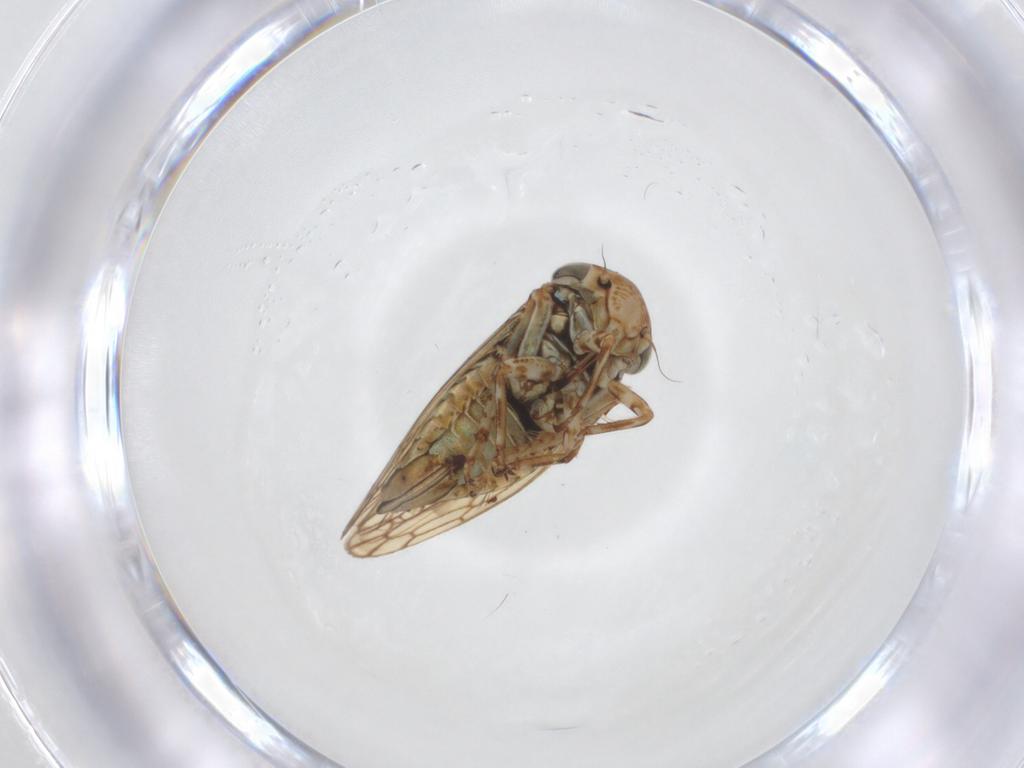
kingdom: Animalia
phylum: Arthropoda
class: Insecta
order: Hemiptera
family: Cicadellidae
